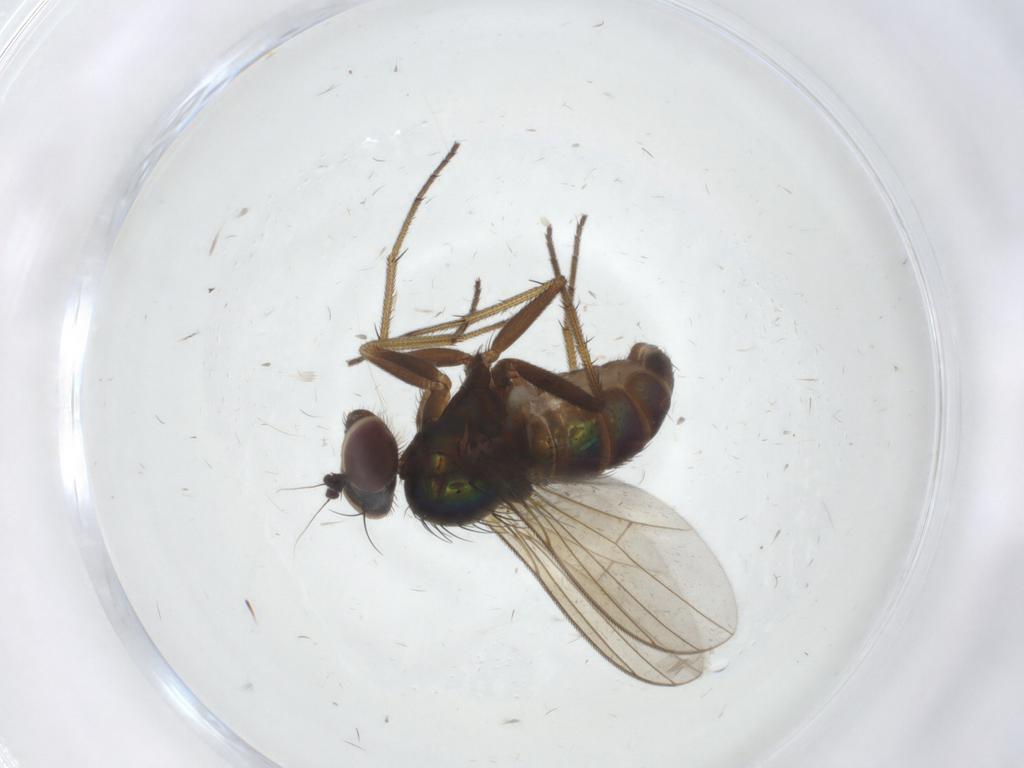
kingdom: Animalia
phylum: Arthropoda
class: Insecta
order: Diptera
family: Dolichopodidae
